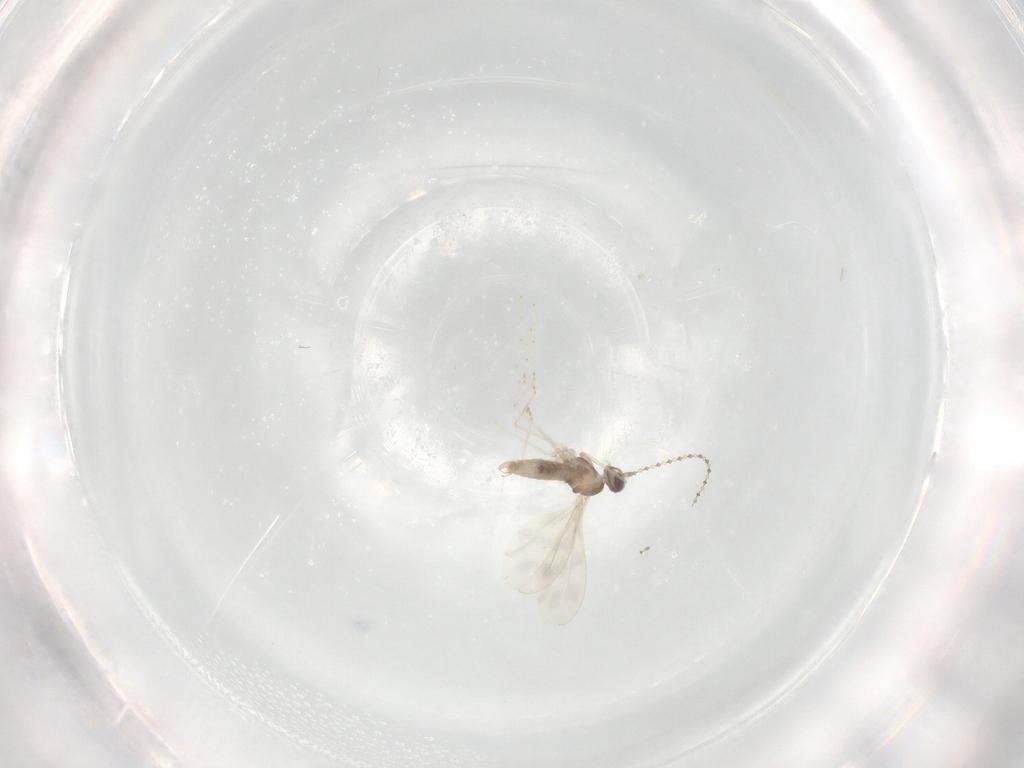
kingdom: Animalia
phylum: Arthropoda
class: Insecta
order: Diptera
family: Cecidomyiidae
